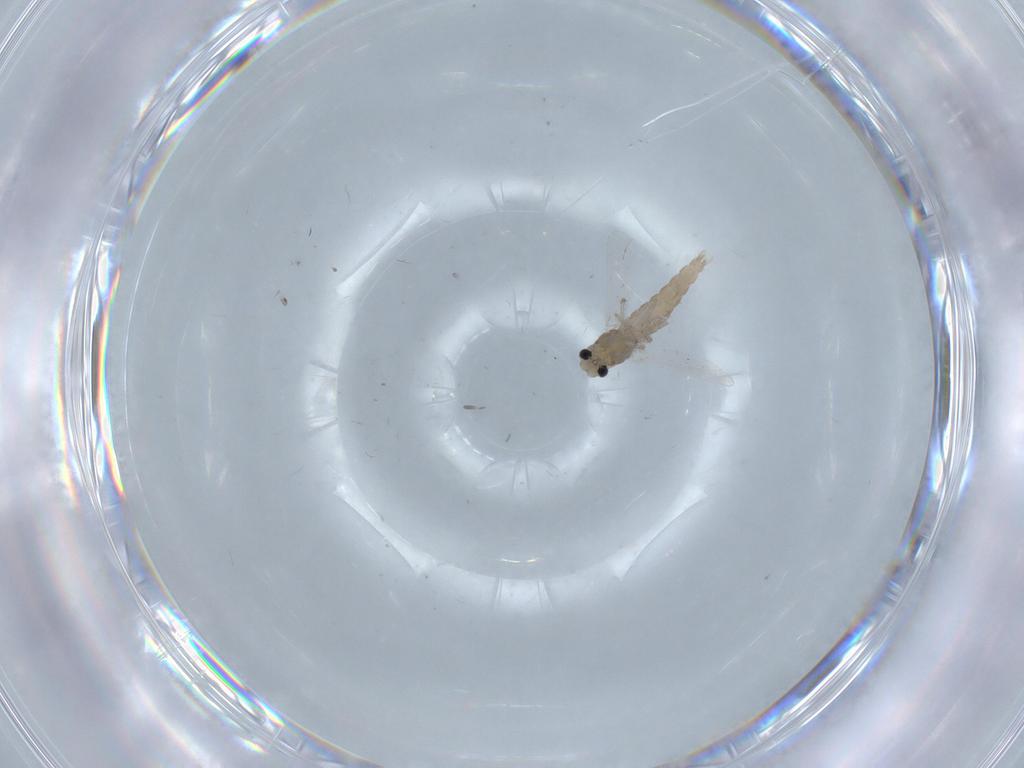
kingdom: Animalia
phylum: Arthropoda
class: Insecta
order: Diptera
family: Chironomidae
